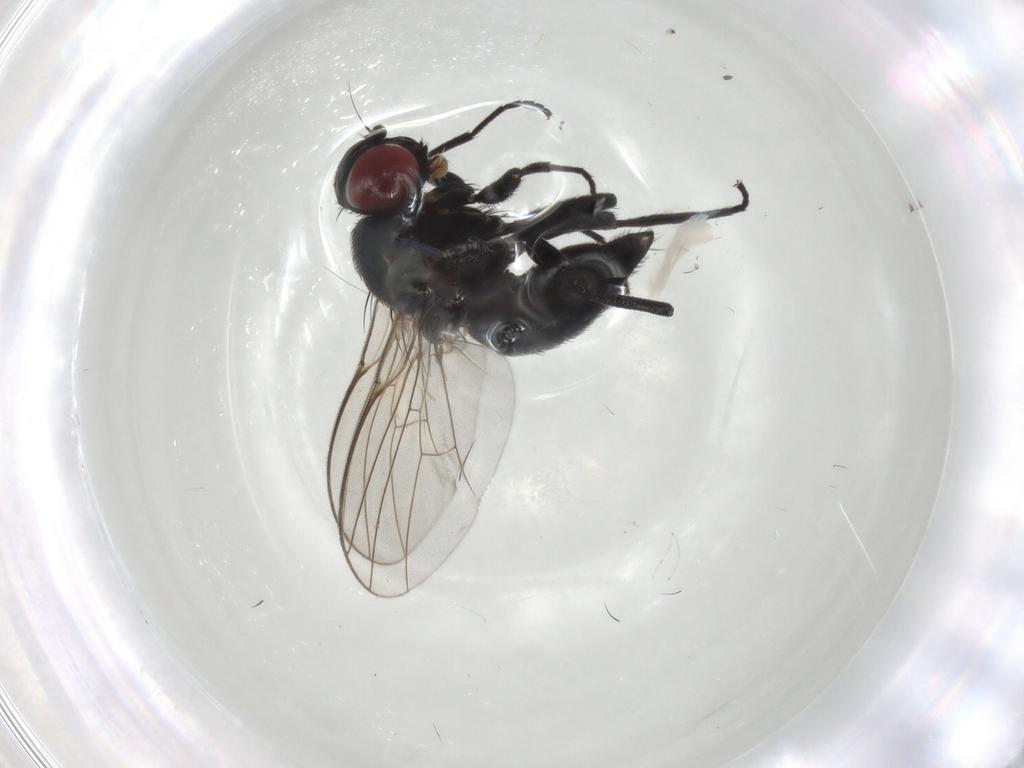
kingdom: Animalia
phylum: Arthropoda
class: Insecta
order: Diptera
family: Agromyzidae
